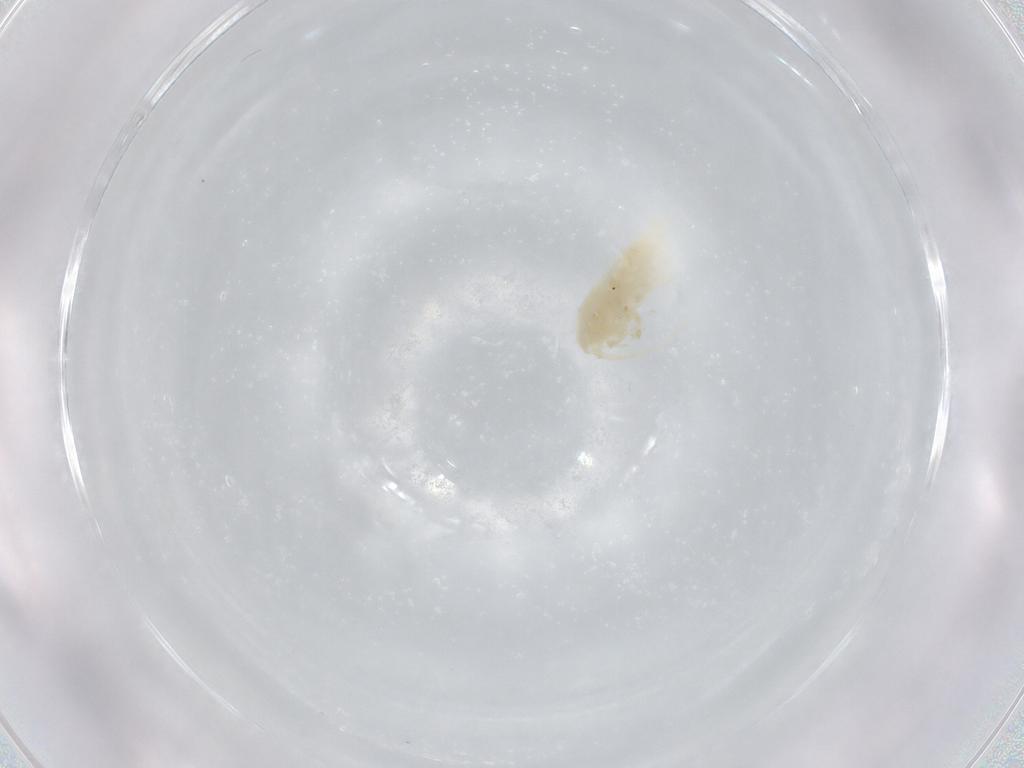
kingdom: Animalia
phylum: Arthropoda
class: Copepoda
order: Calanoida
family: Diaptomidae
